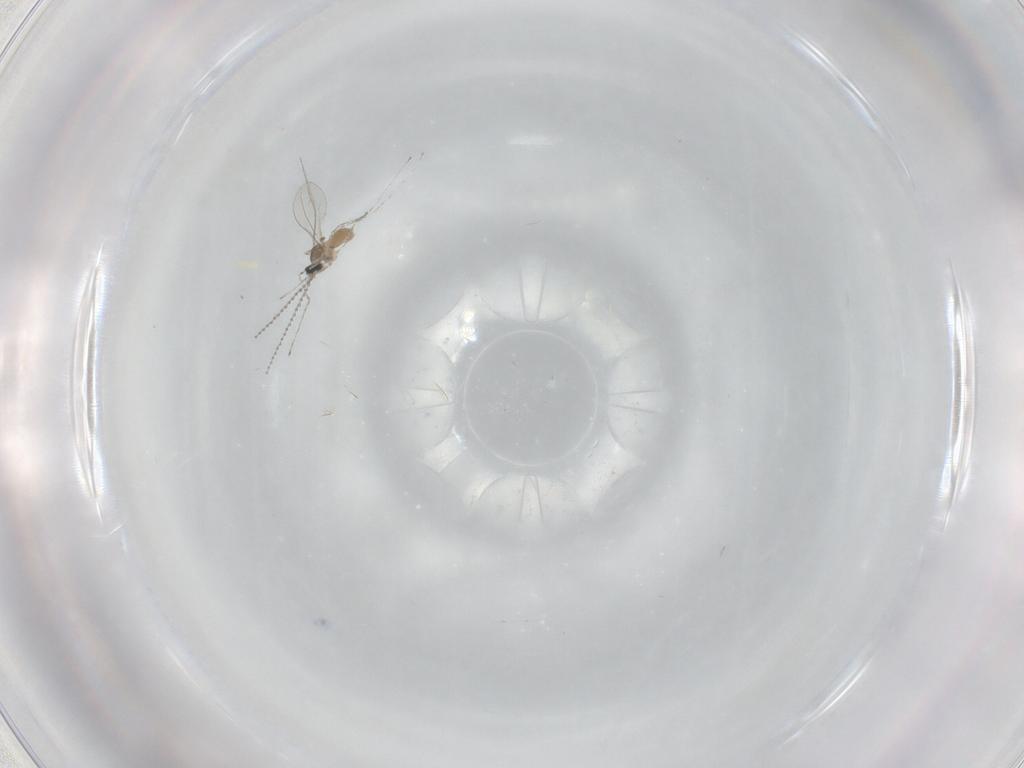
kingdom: Animalia
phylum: Arthropoda
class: Insecta
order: Diptera
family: Cecidomyiidae
